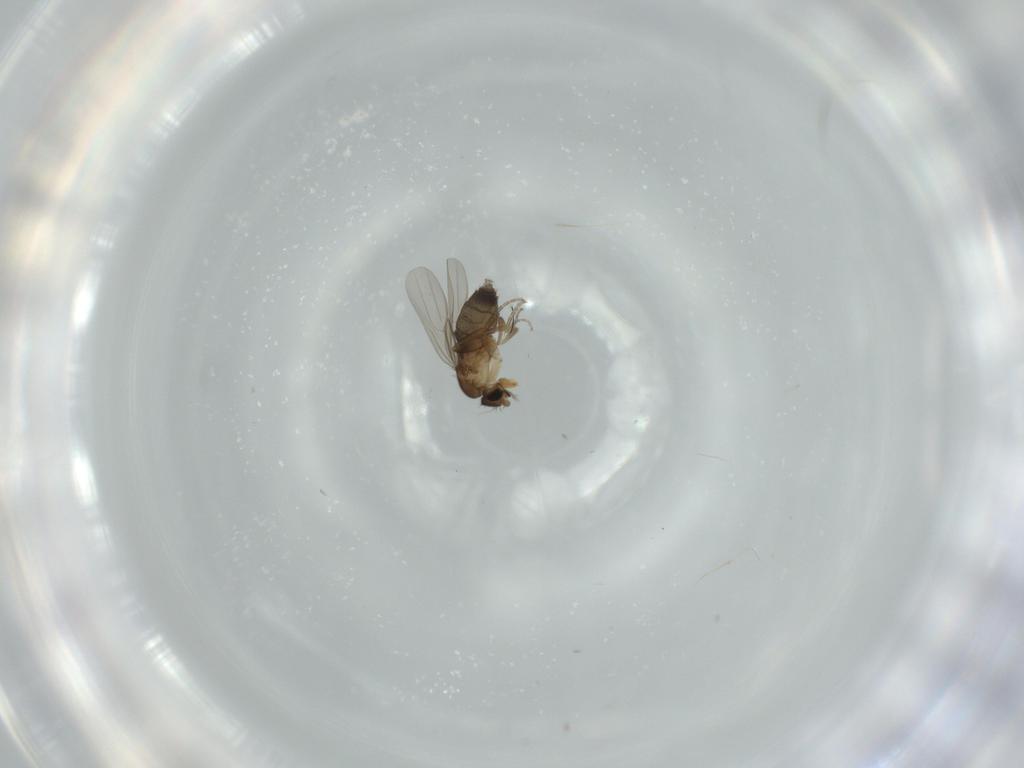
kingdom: Animalia
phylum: Arthropoda
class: Insecta
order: Diptera
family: Phoridae
